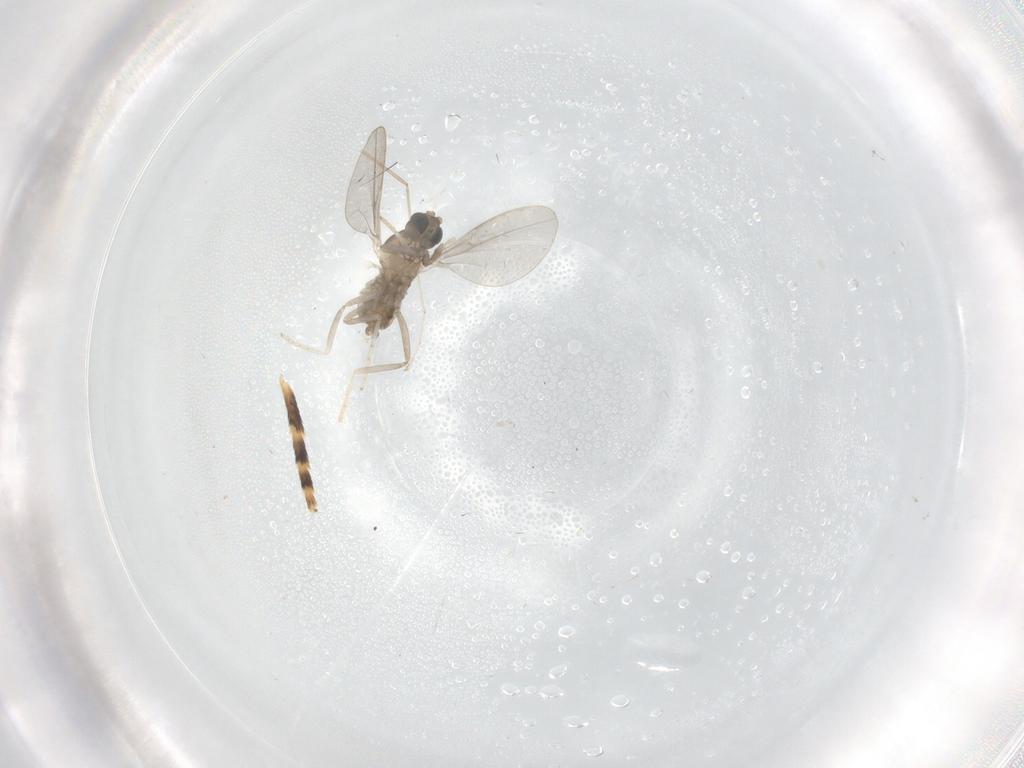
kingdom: Animalia
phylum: Arthropoda
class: Insecta
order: Diptera
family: Cecidomyiidae
